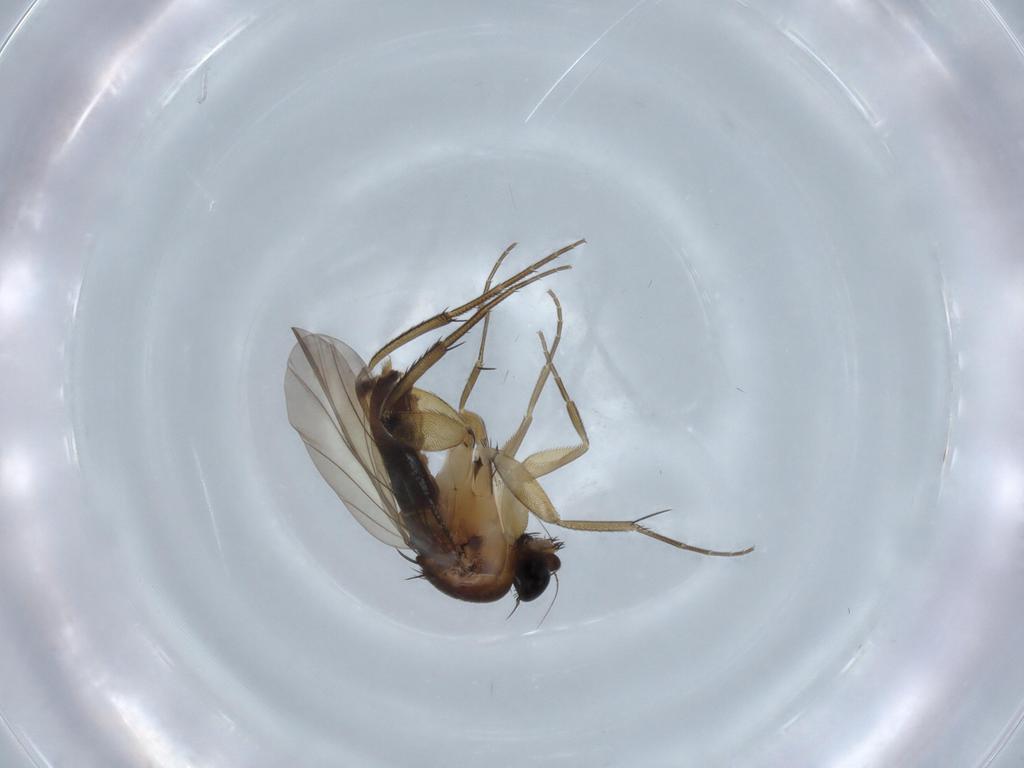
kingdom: Animalia
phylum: Arthropoda
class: Insecta
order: Diptera
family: Phoridae
